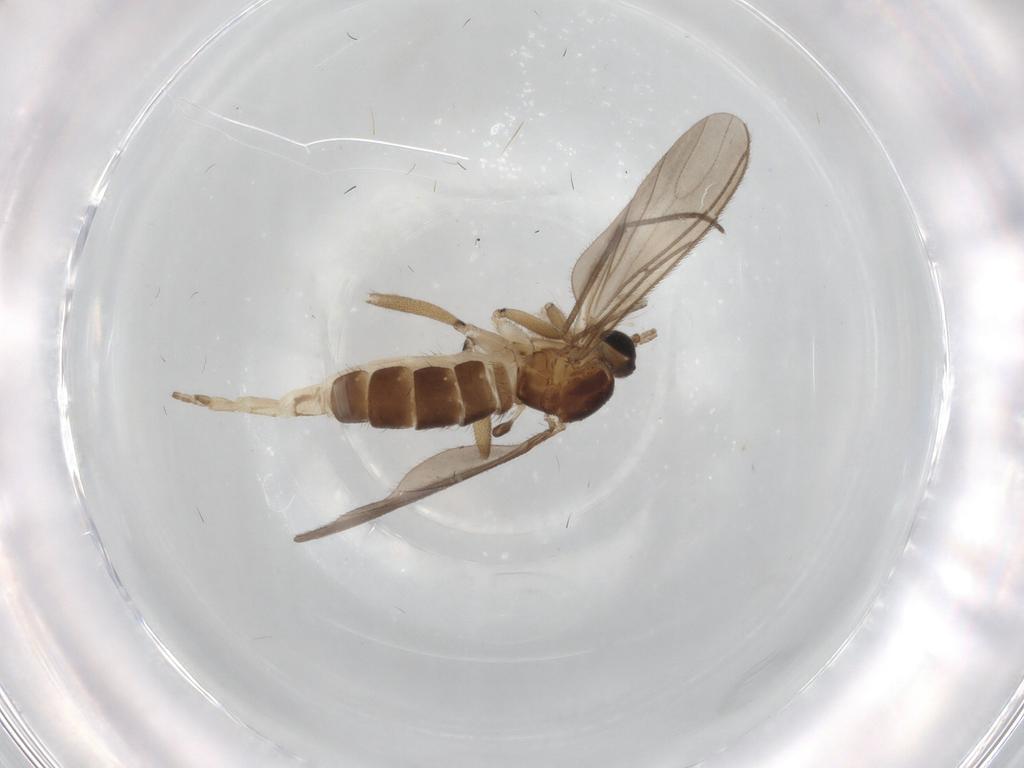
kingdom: Animalia
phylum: Arthropoda
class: Insecta
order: Diptera
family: Sciaridae
